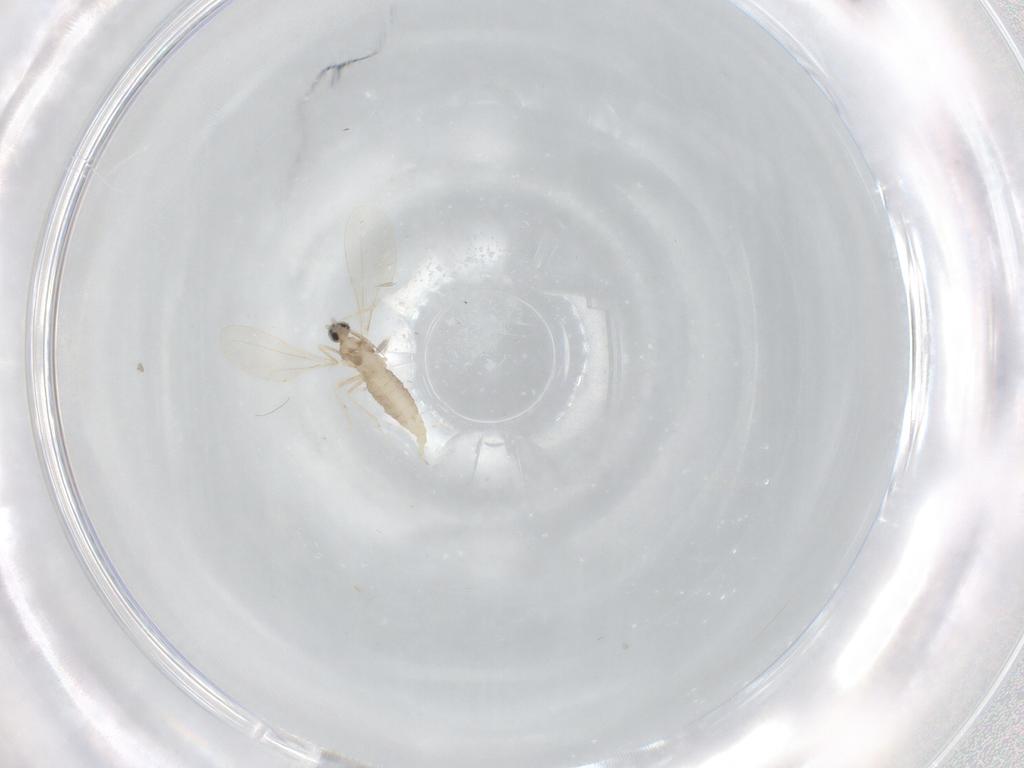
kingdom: Animalia
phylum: Arthropoda
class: Insecta
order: Diptera
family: Cecidomyiidae
